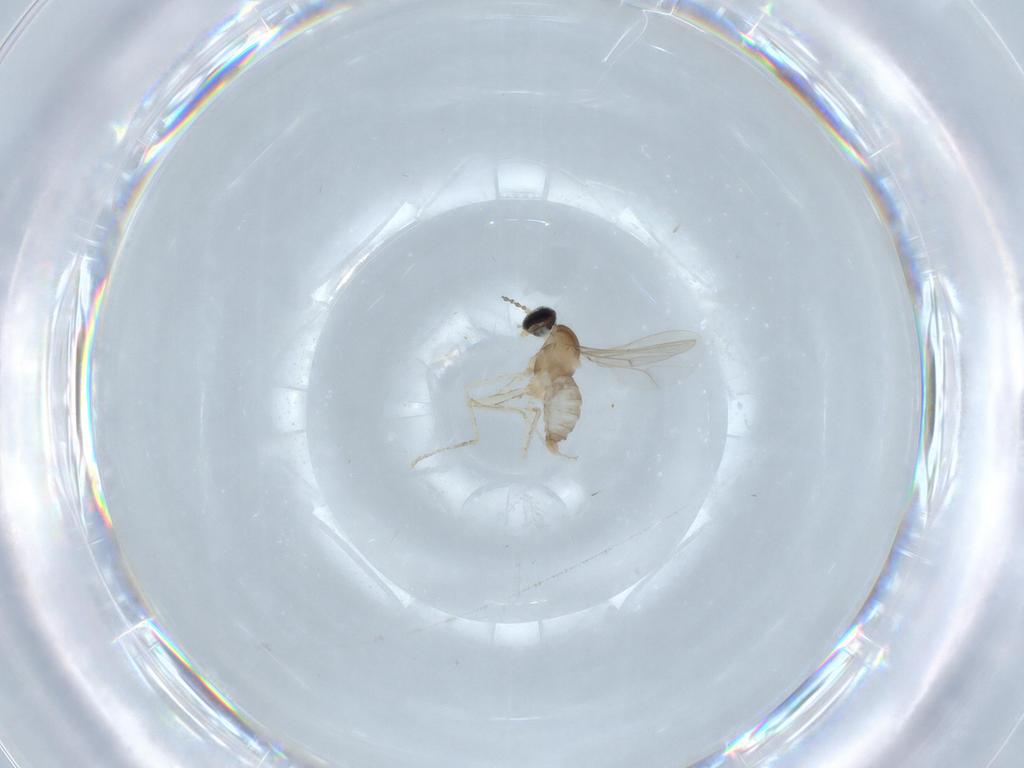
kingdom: Animalia
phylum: Arthropoda
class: Insecta
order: Diptera
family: Cecidomyiidae
